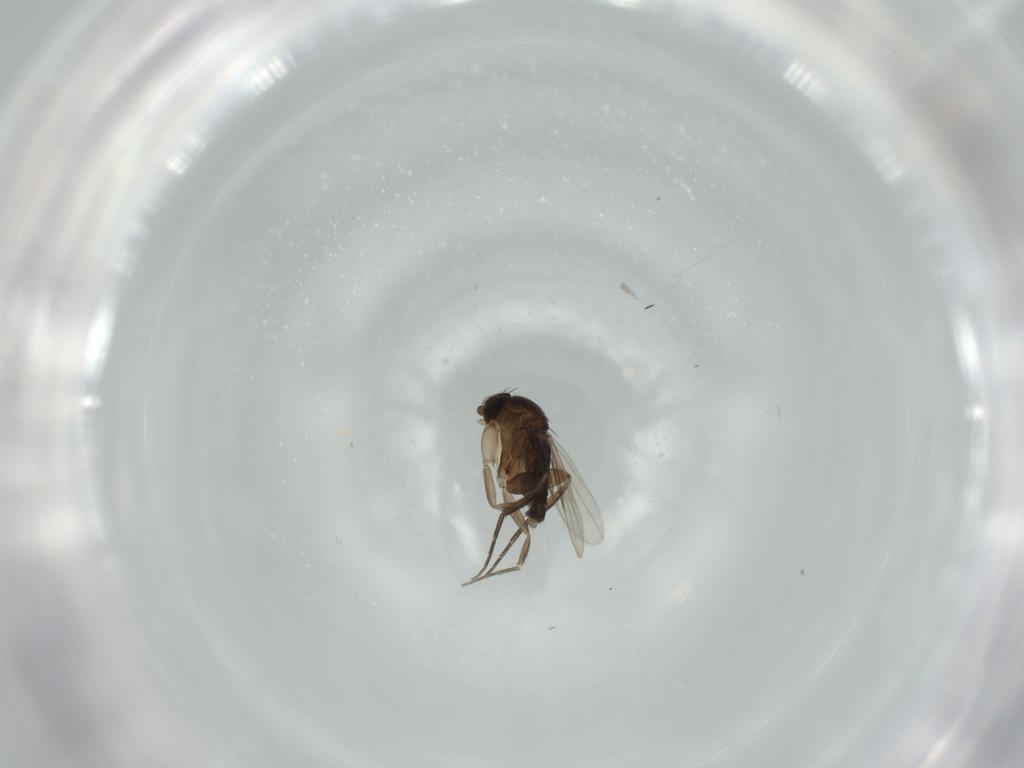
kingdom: Animalia
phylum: Arthropoda
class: Insecta
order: Diptera
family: Phoridae
